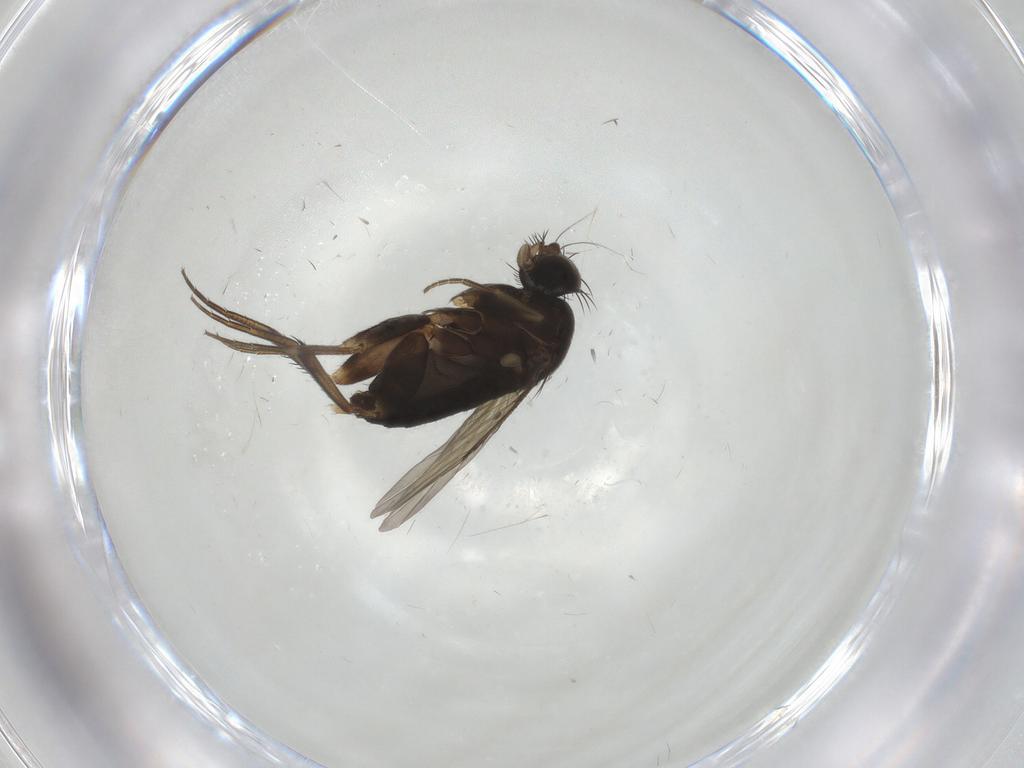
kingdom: Animalia
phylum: Arthropoda
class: Insecta
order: Diptera
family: Phoridae
